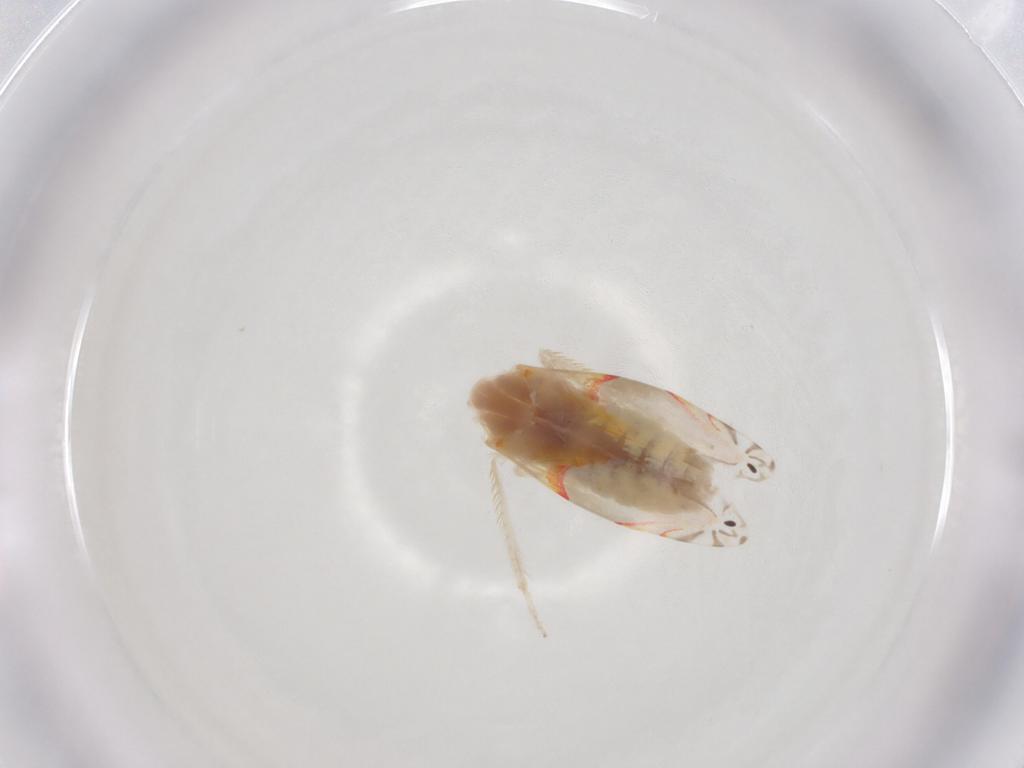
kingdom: Animalia
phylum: Arthropoda
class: Insecta
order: Hemiptera
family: Cicadellidae
